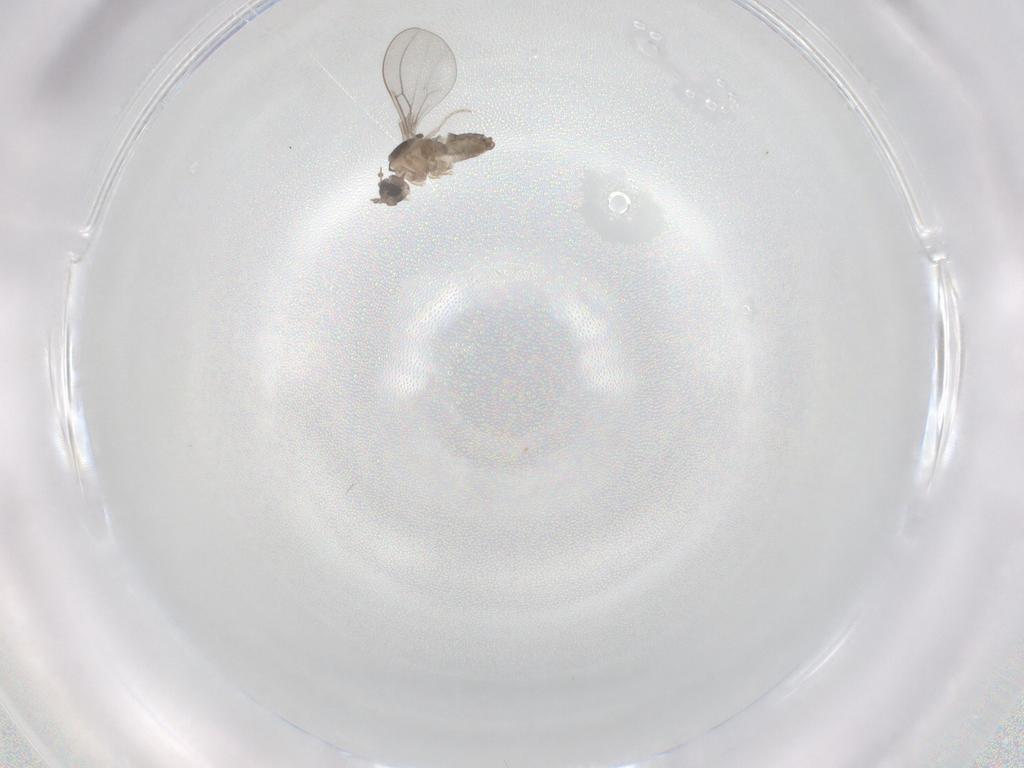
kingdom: Animalia
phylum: Arthropoda
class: Insecta
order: Diptera
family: Cecidomyiidae
